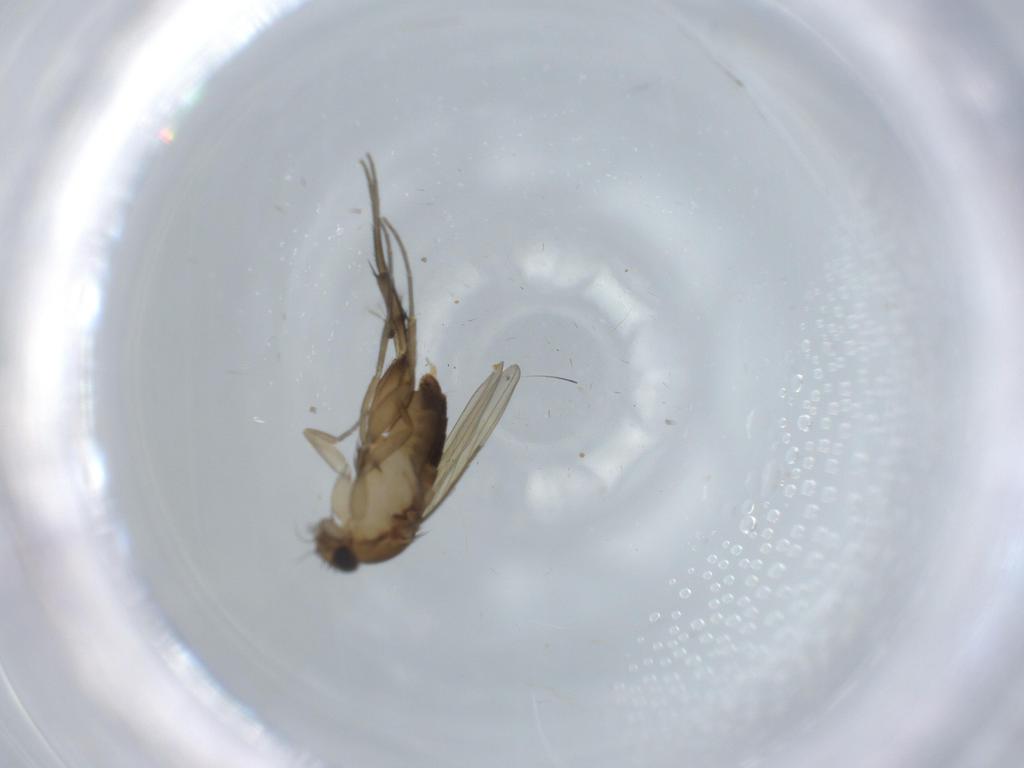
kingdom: Animalia
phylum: Arthropoda
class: Insecta
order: Diptera
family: Phoridae
